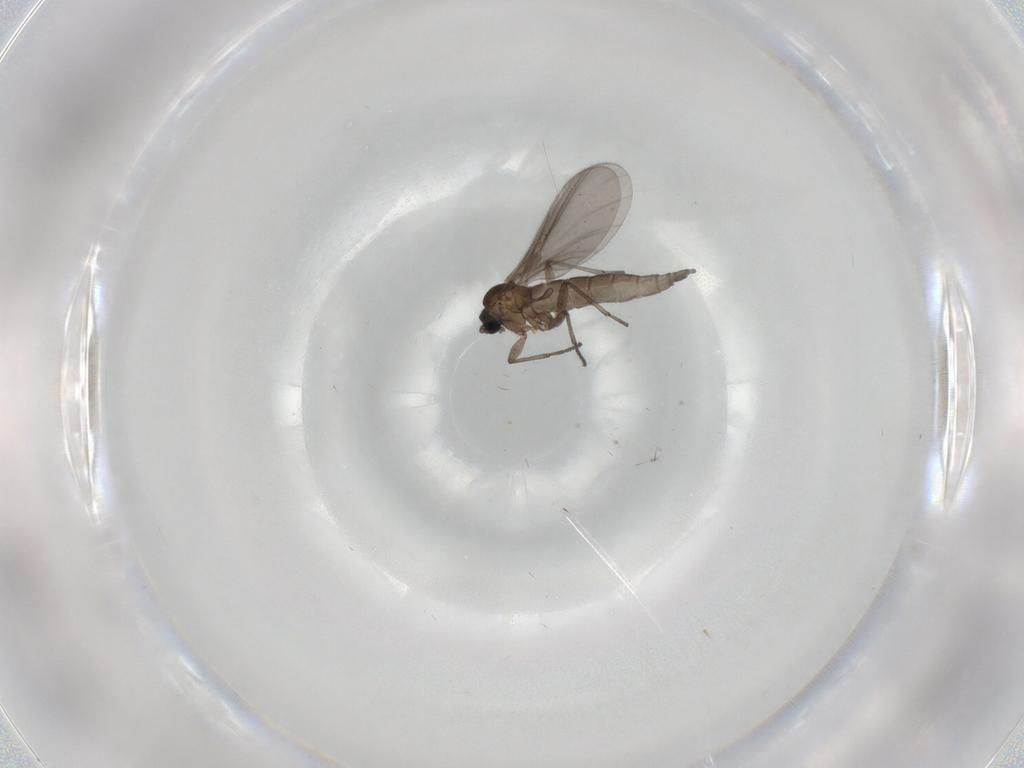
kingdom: Animalia
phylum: Arthropoda
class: Insecta
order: Diptera
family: Sciaridae
